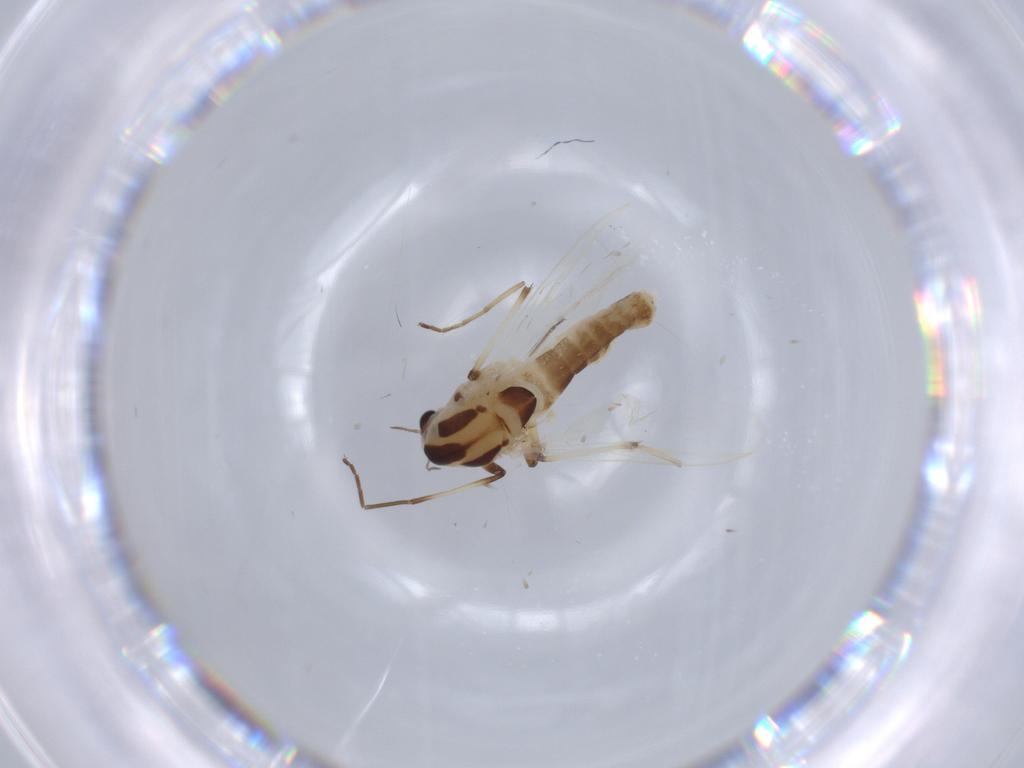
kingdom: Animalia
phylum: Arthropoda
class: Insecta
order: Diptera
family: Chironomidae
